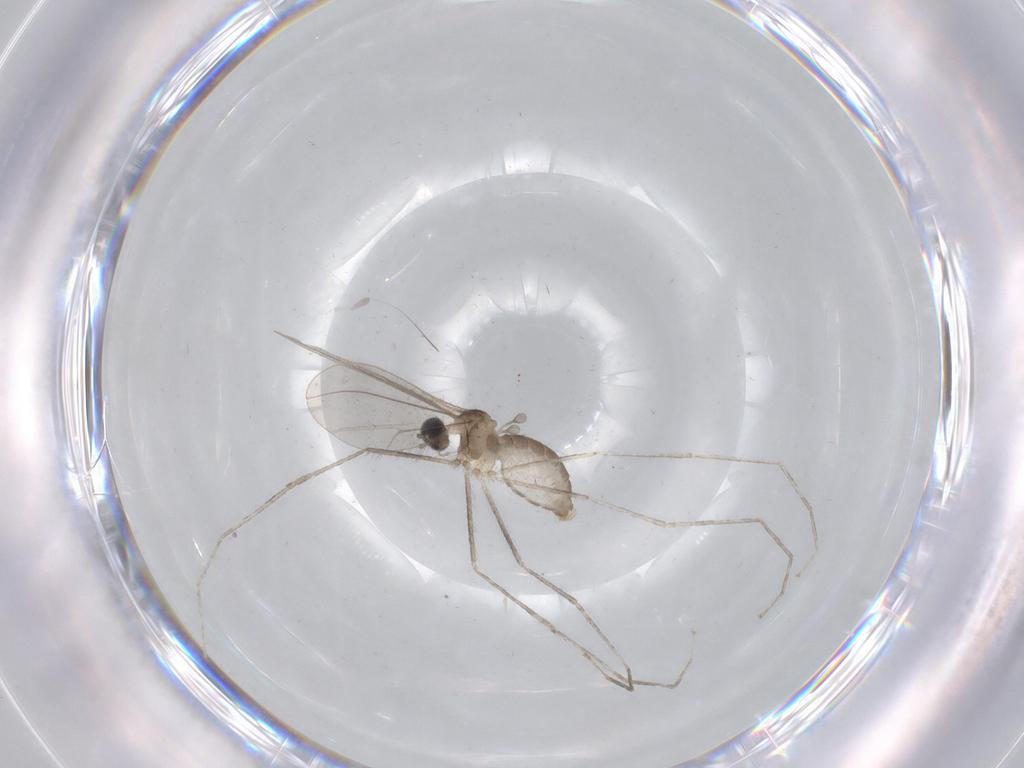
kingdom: Animalia
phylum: Arthropoda
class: Insecta
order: Diptera
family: Cecidomyiidae
